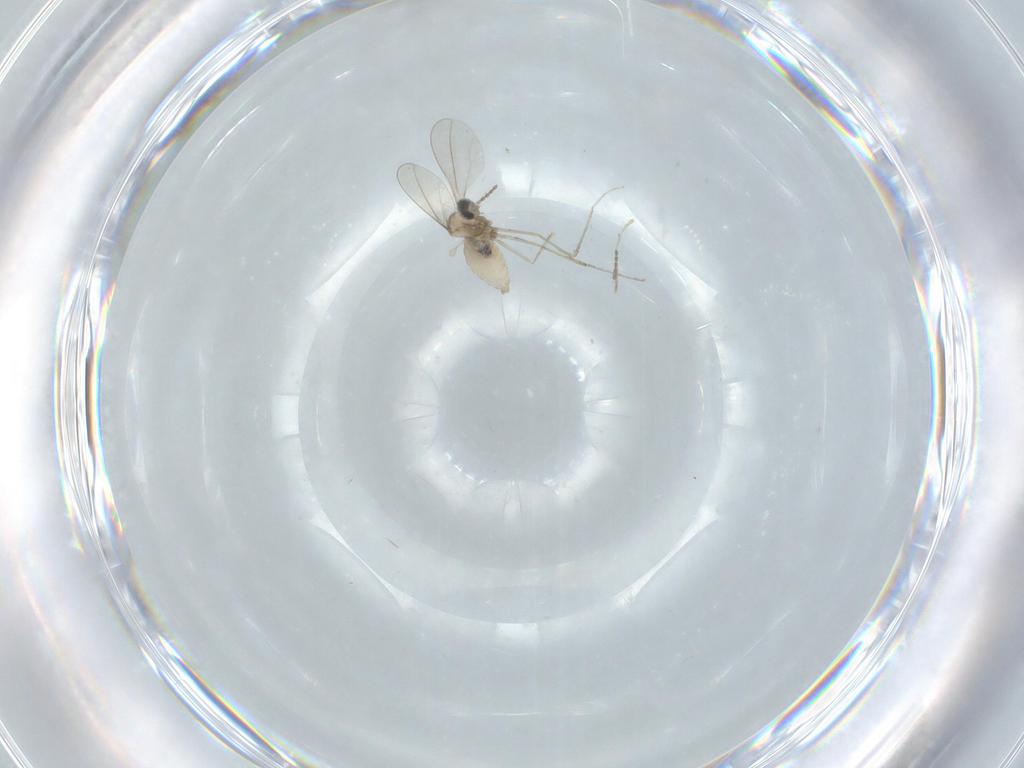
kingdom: Animalia
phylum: Arthropoda
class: Insecta
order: Diptera
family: Cecidomyiidae
